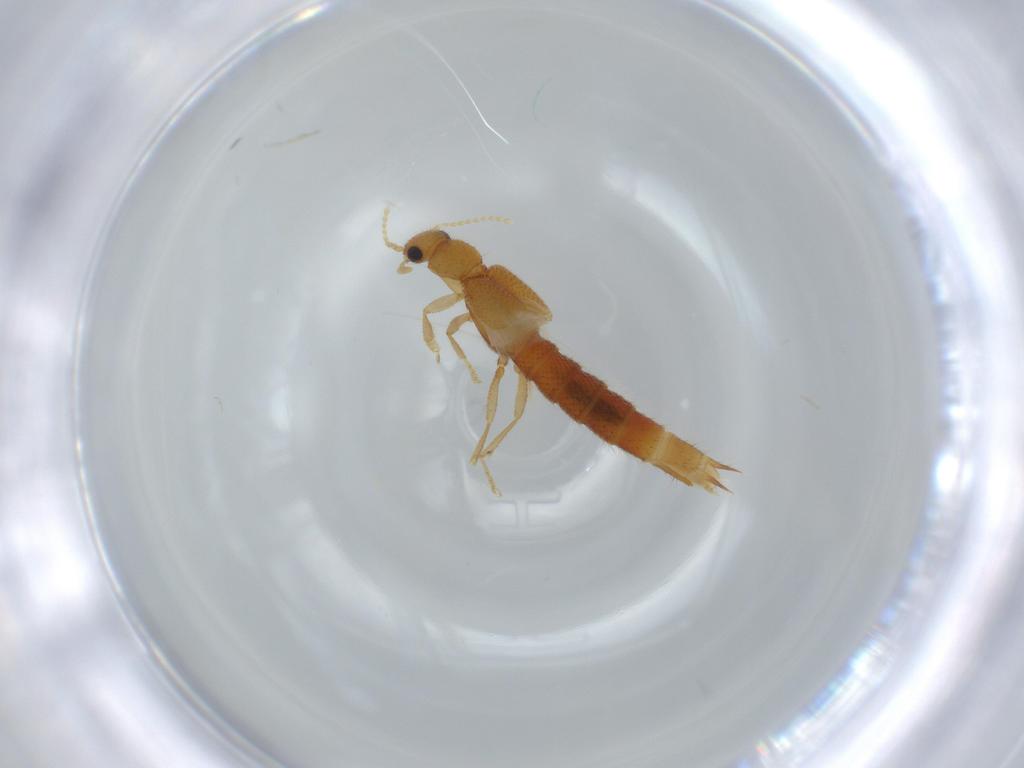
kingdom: Animalia
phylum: Arthropoda
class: Insecta
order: Coleoptera
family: Staphylinidae
